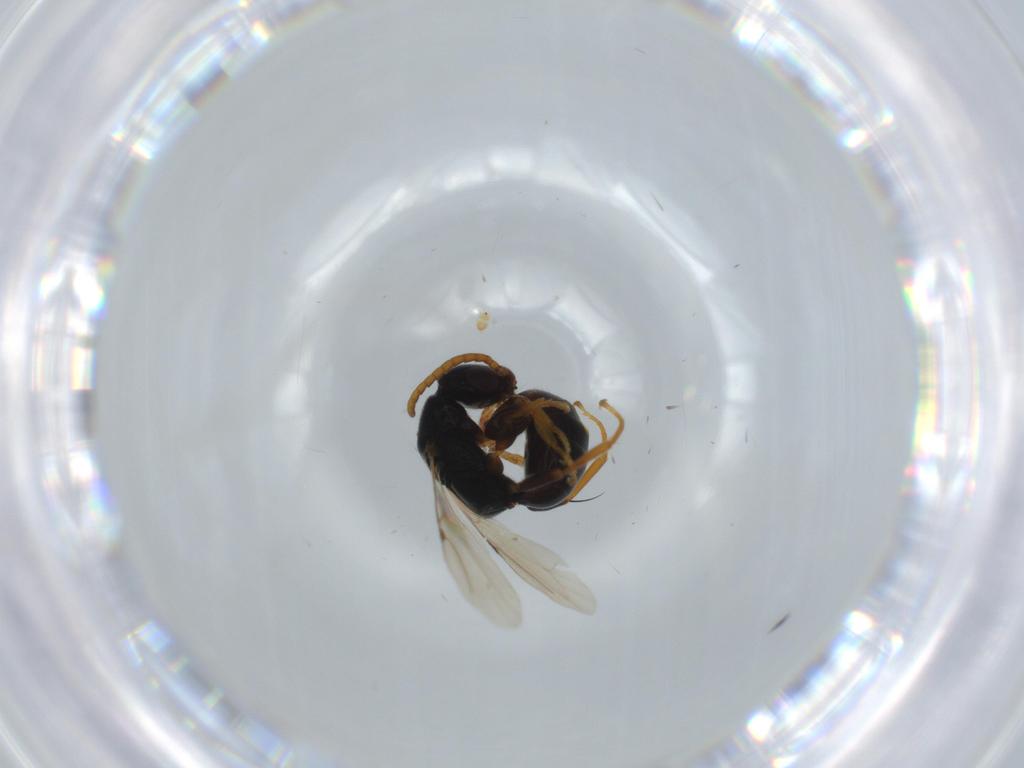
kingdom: Animalia
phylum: Arthropoda
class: Insecta
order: Hymenoptera
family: Bethylidae
